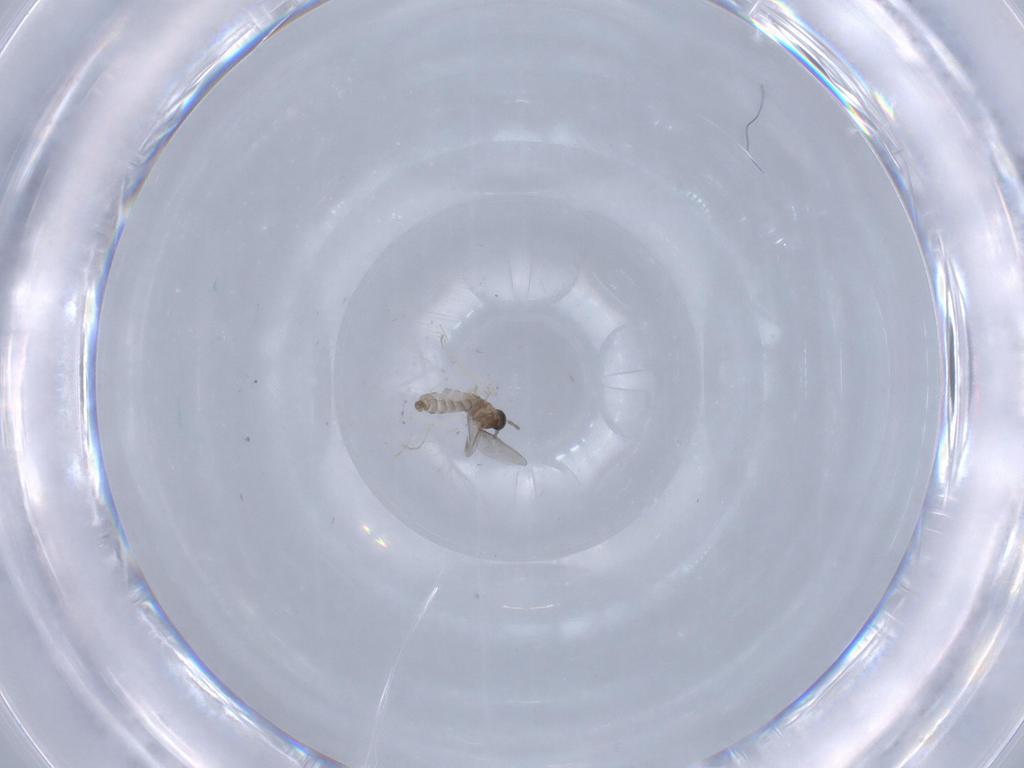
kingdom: Animalia
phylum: Arthropoda
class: Insecta
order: Diptera
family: Cecidomyiidae
